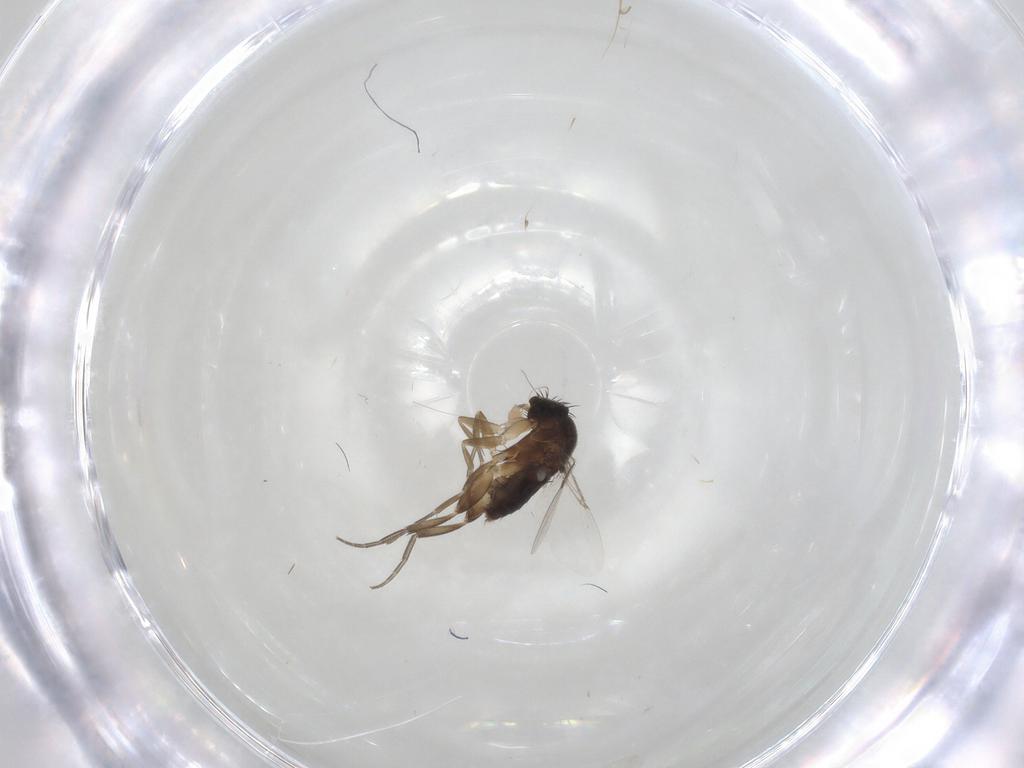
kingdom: Animalia
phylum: Arthropoda
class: Insecta
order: Diptera
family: Phoridae
